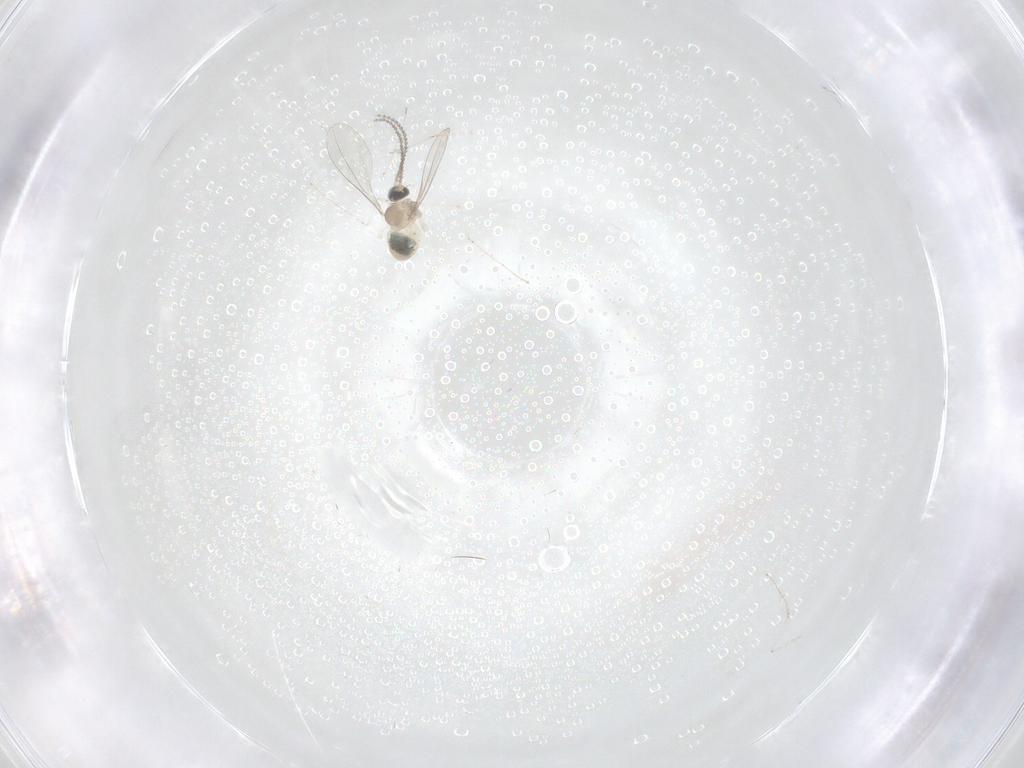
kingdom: Animalia
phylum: Arthropoda
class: Insecta
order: Diptera
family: Cecidomyiidae
